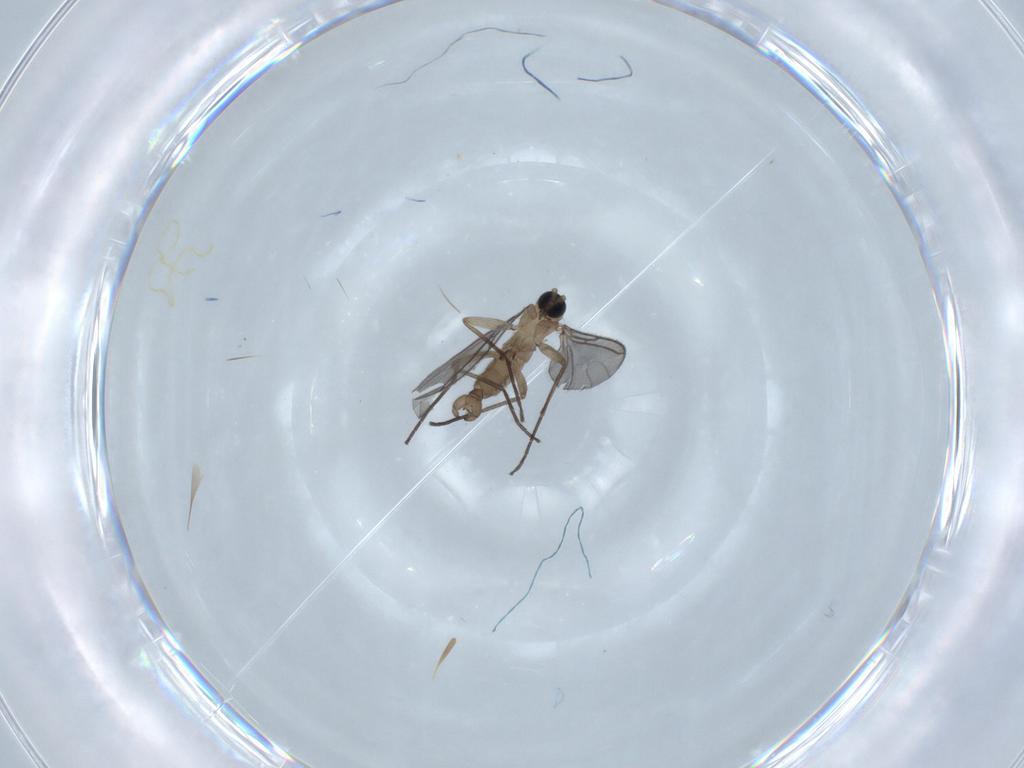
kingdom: Animalia
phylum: Arthropoda
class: Insecta
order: Diptera
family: Sciaridae
